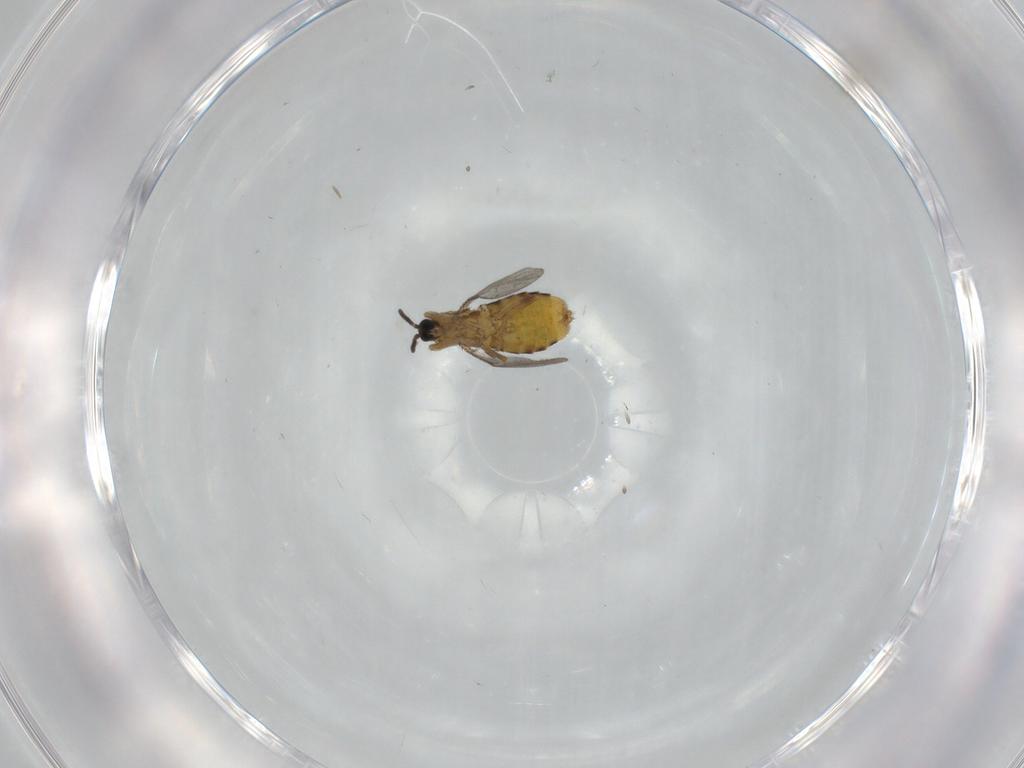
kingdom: Animalia
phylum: Arthropoda
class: Insecta
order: Diptera
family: Scatopsidae
